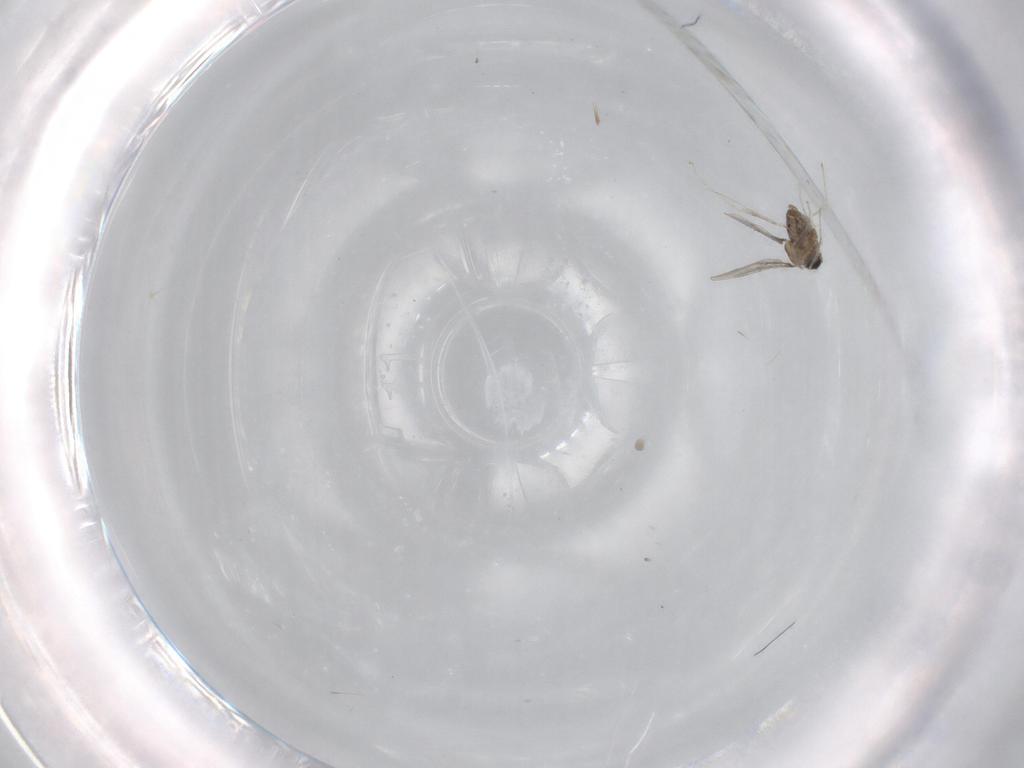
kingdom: Animalia
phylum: Arthropoda
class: Insecta
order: Diptera
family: Cecidomyiidae
